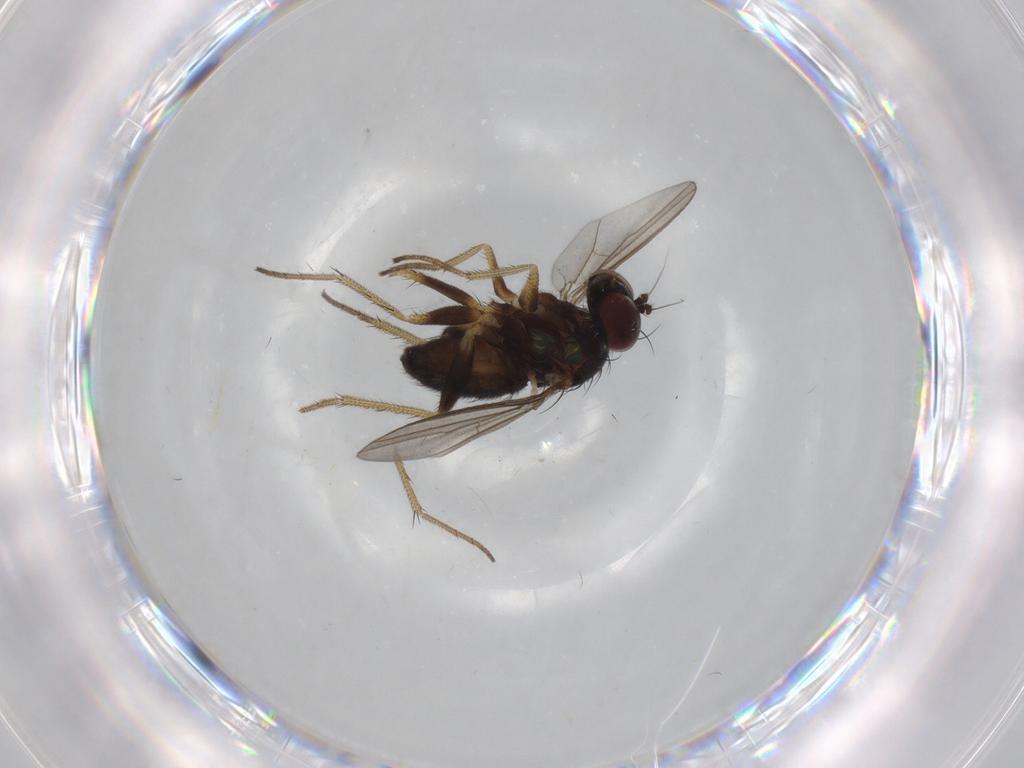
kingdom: Animalia
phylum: Arthropoda
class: Insecta
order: Diptera
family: Dolichopodidae
